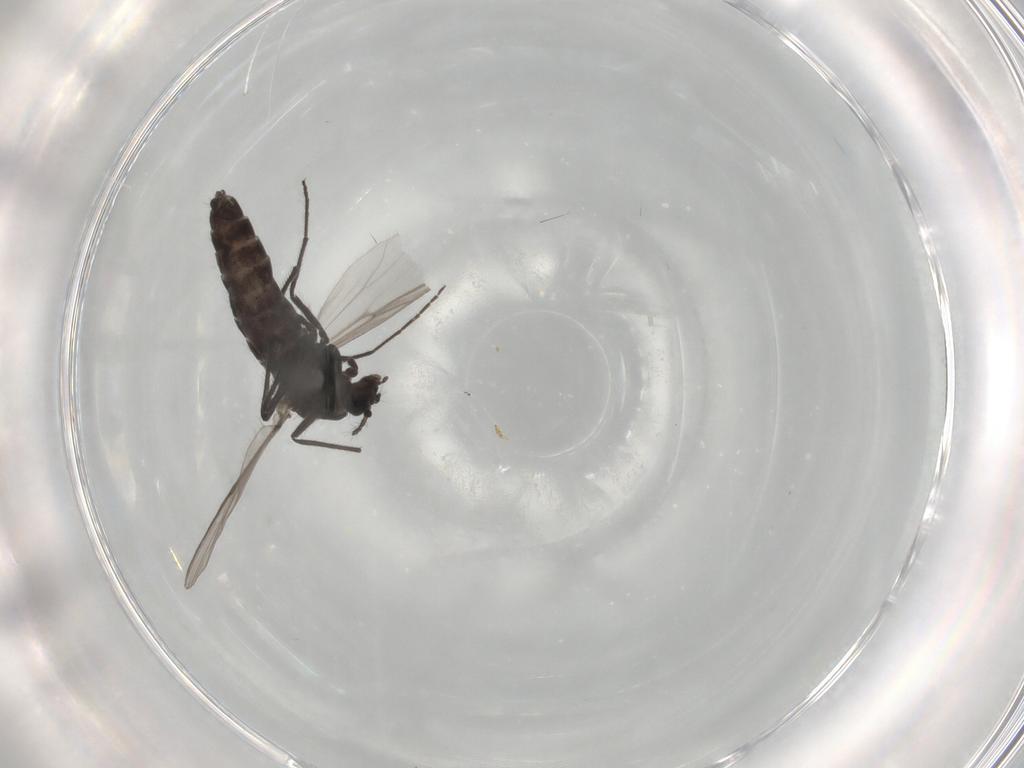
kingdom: Animalia
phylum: Arthropoda
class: Insecta
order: Diptera
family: Chironomidae
